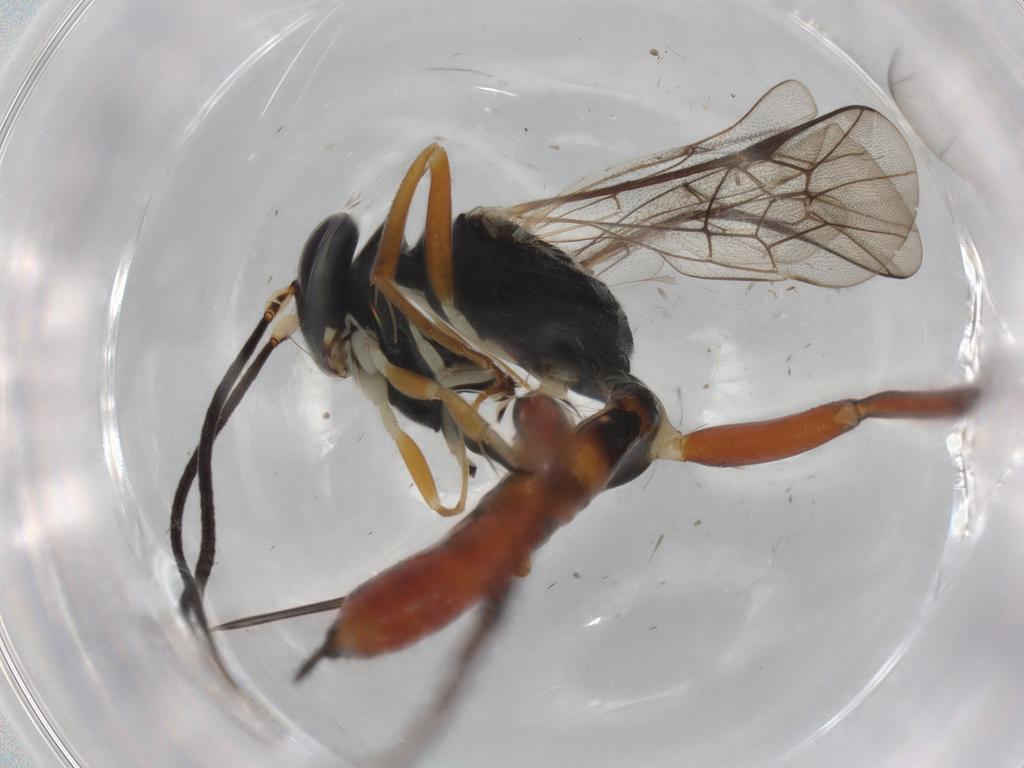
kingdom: Animalia
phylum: Arthropoda
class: Insecta
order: Hymenoptera
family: Ichneumonidae
